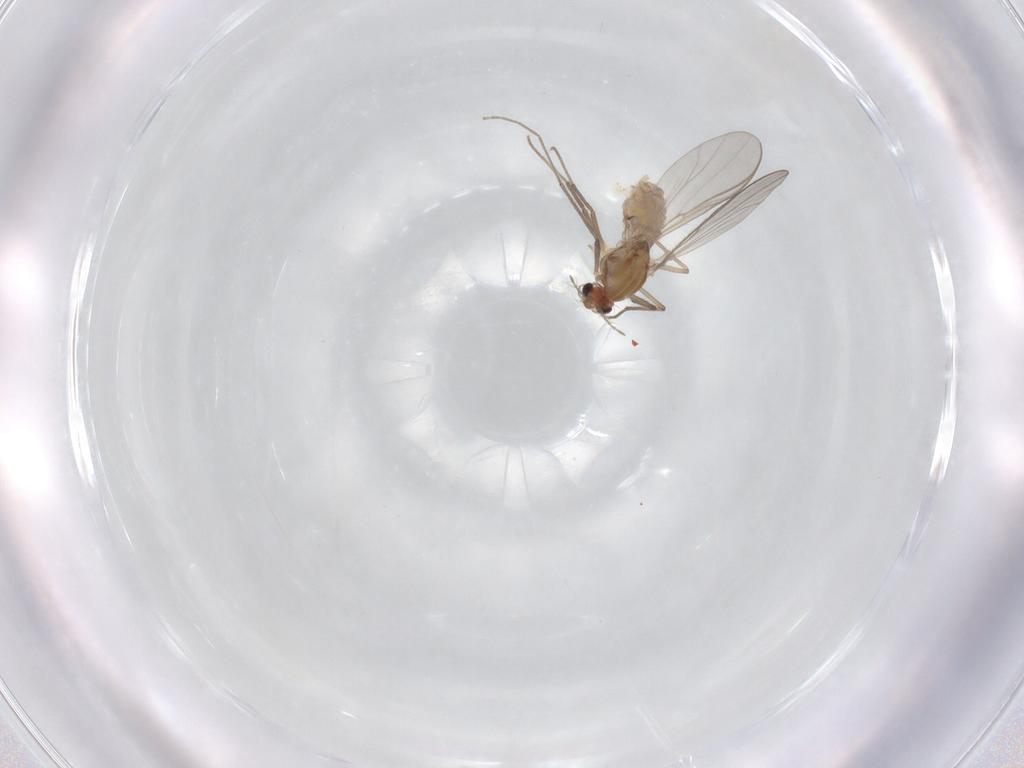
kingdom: Animalia
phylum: Arthropoda
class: Insecta
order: Diptera
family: Chironomidae
